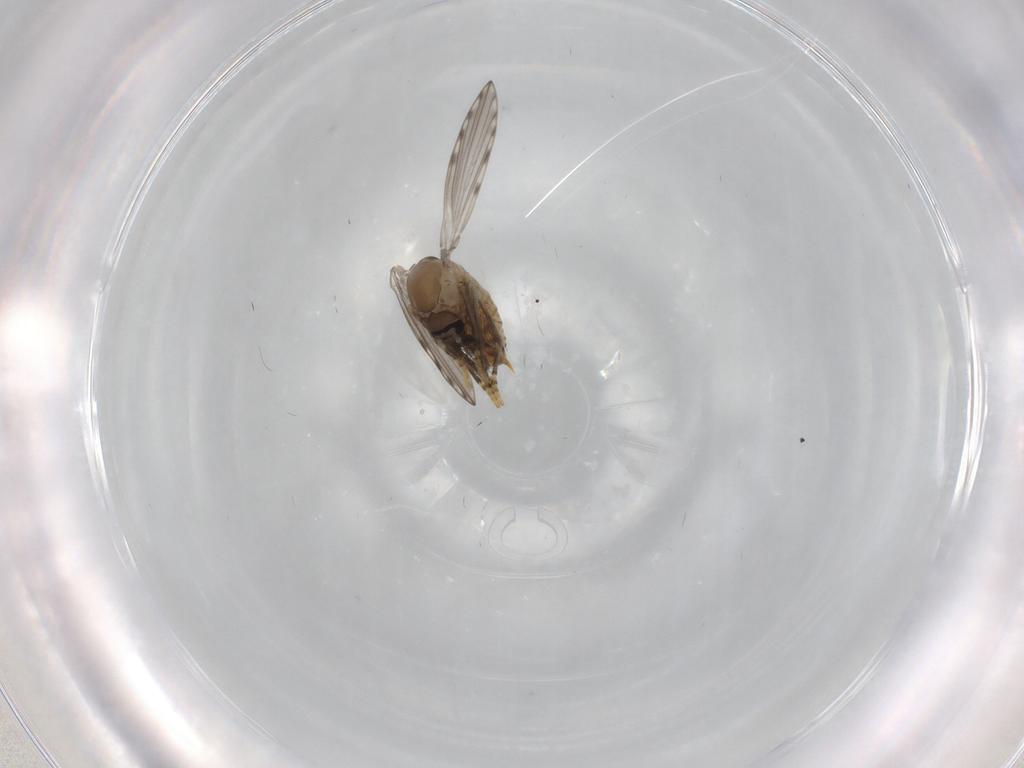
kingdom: Animalia
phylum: Arthropoda
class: Insecta
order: Diptera
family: Psychodidae
